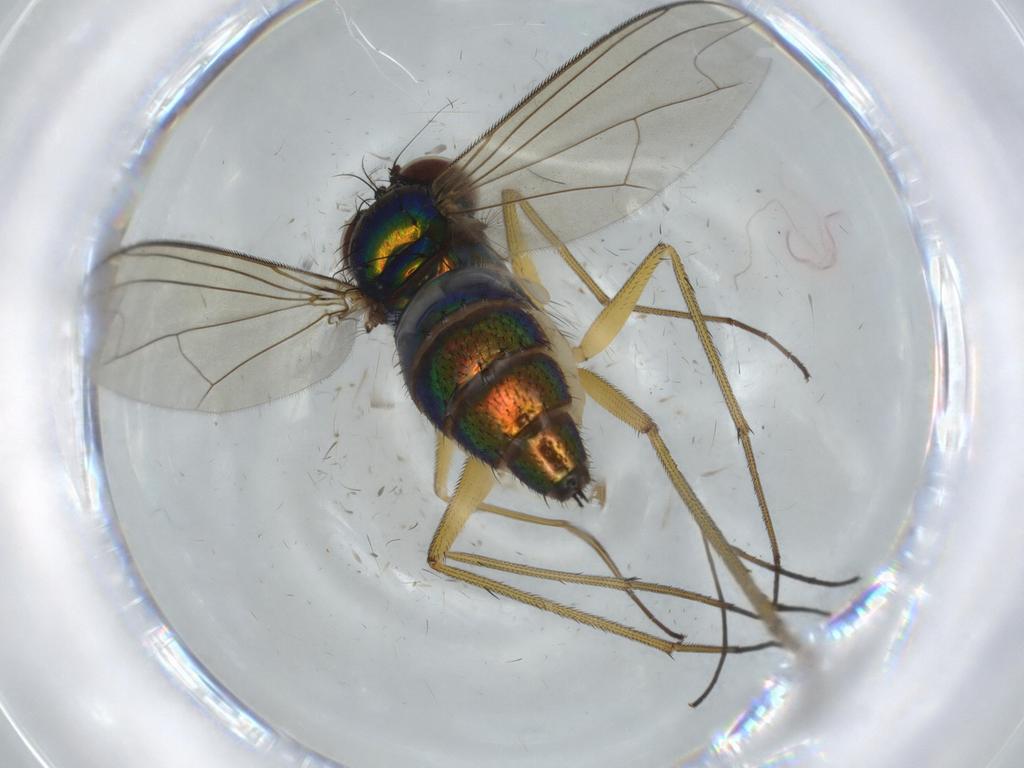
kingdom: Animalia
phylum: Arthropoda
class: Insecta
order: Diptera
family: Dolichopodidae
